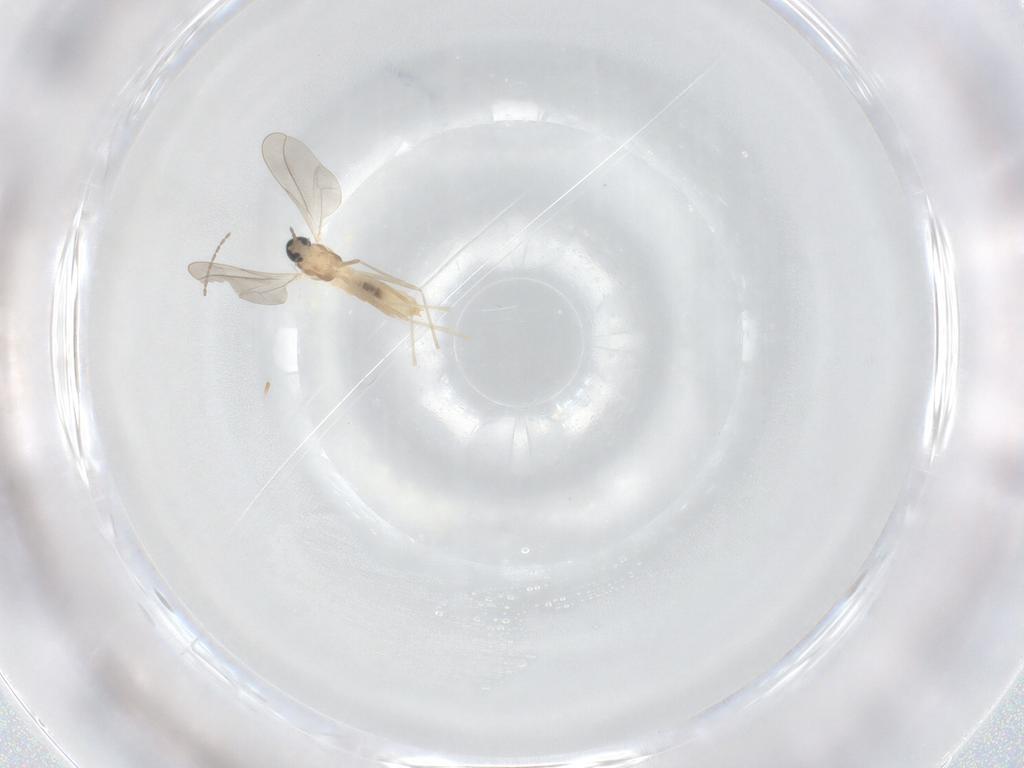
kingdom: Animalia
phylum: Arthropoda
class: Insecta
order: Diptera
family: Cecidomyiidae
